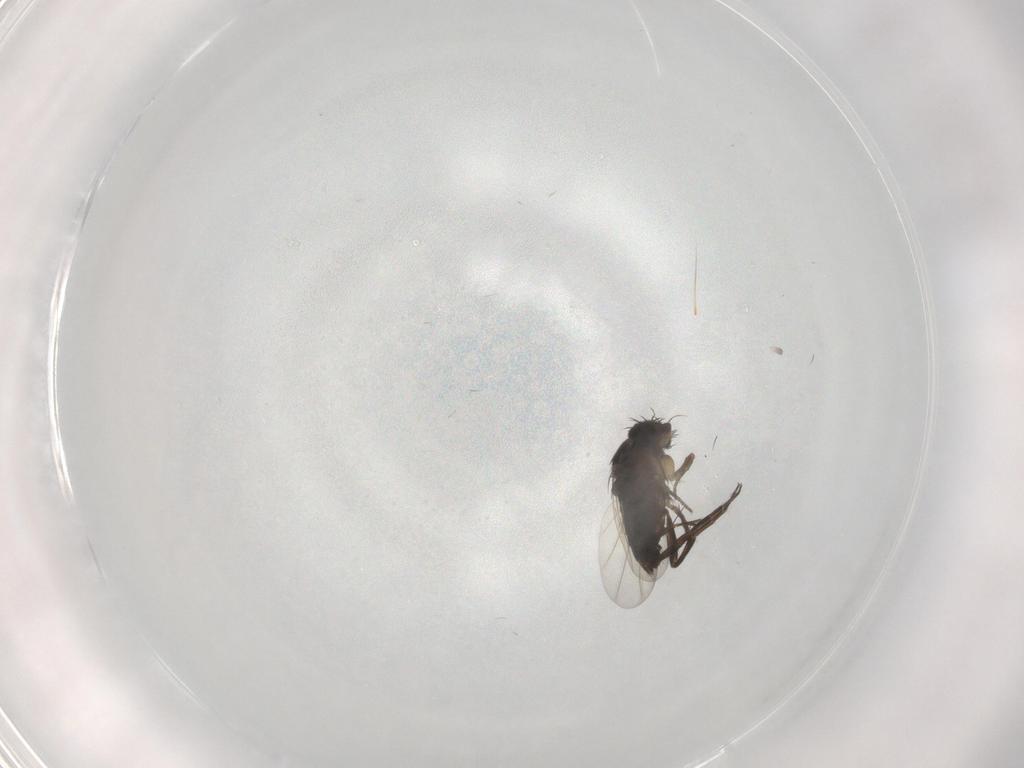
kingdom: Animalia
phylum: Arthropoda
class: Insecta
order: Diptera
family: Phoridae
